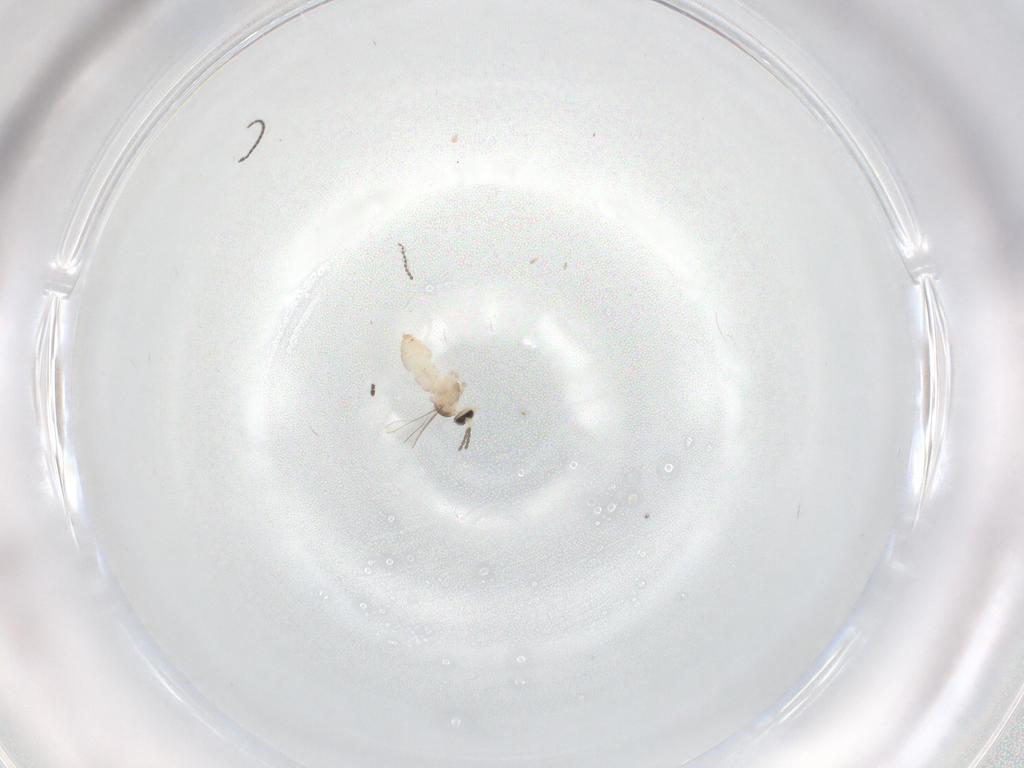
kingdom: Animalia
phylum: Arthropoda
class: Insecta
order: Diptera
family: Cecidomyiidae
